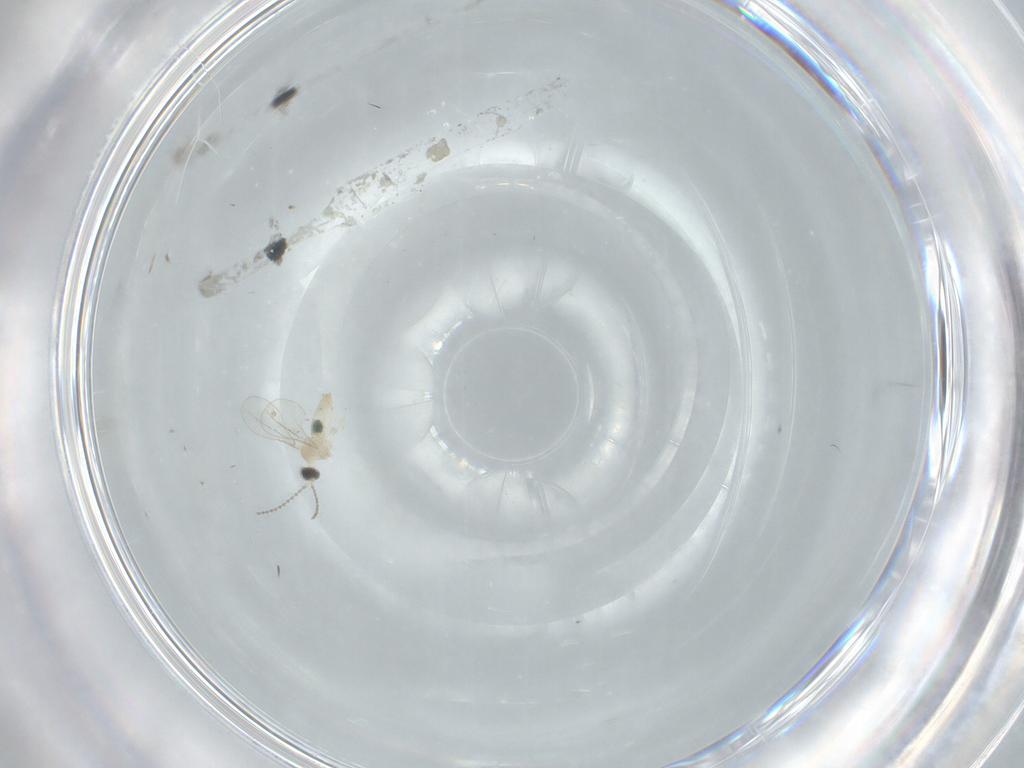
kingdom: Animalia
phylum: Arthropoda
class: Insecta
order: Diptera
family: Cecidomyiidae
